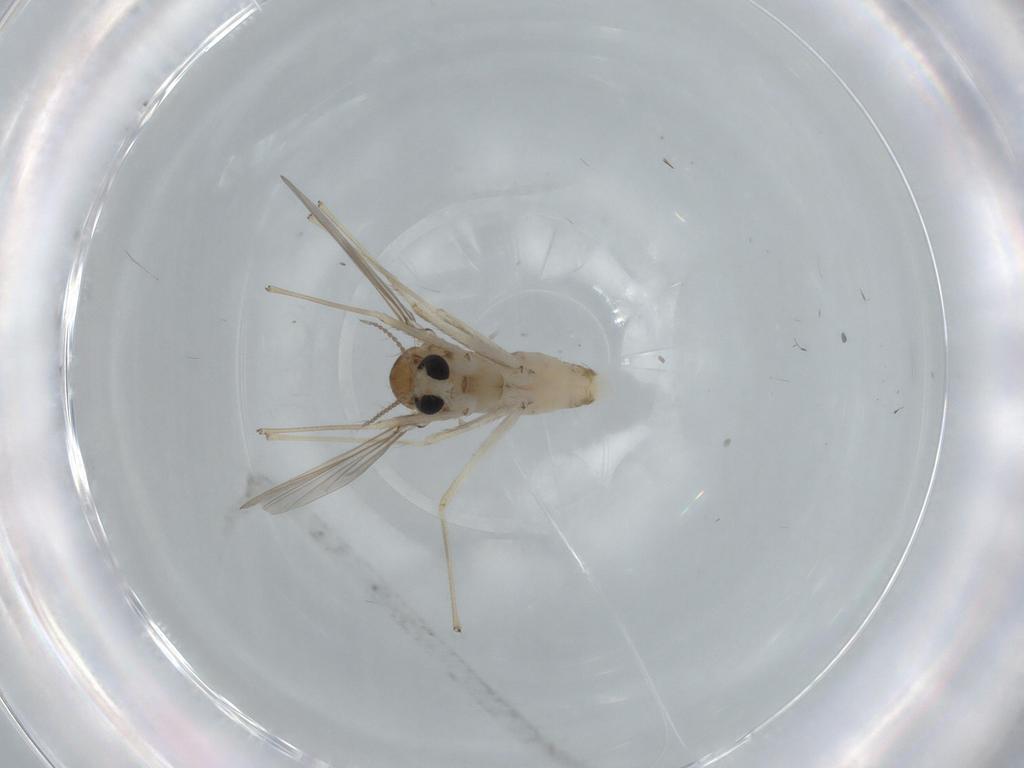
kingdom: Animalia
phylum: Arthropoda
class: Insecta
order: Diptera
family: Chironomidae
